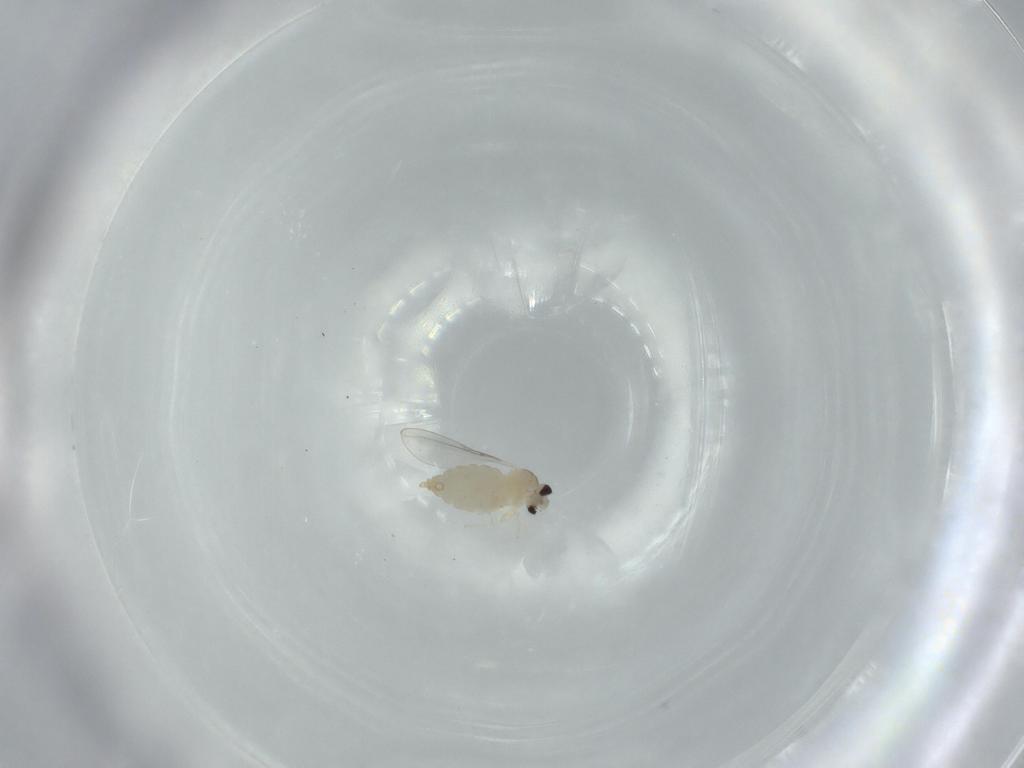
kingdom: Animalia
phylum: Arthropoda
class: Insecta
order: Diptera
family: Cecidomyiidae
